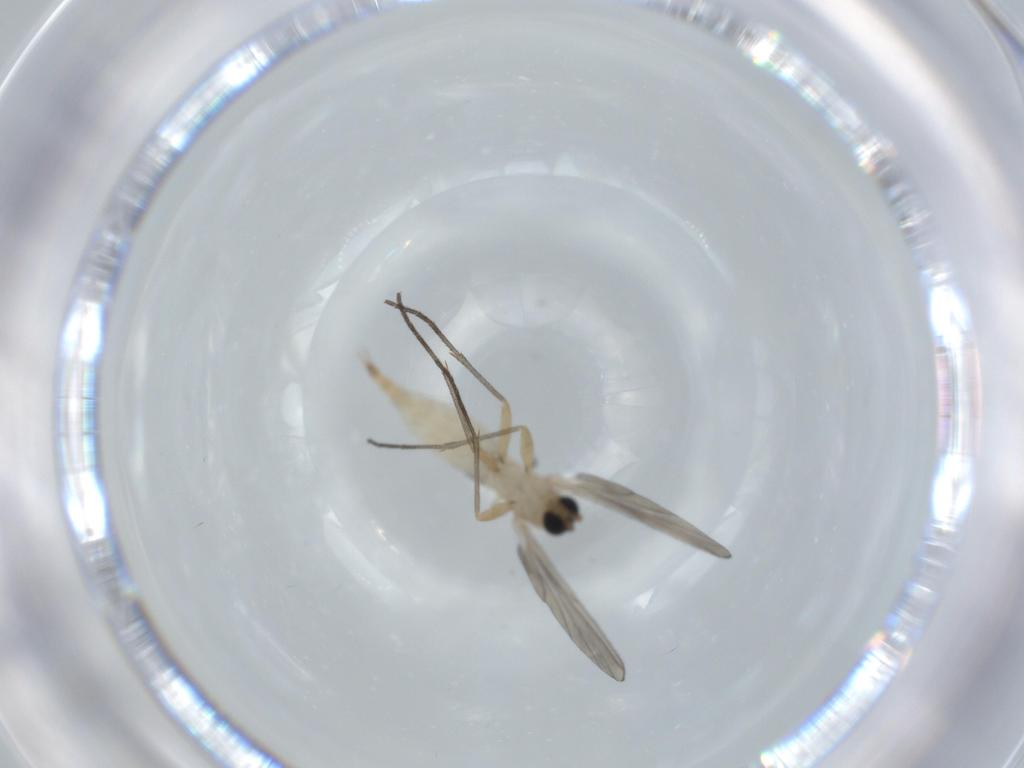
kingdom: Animalia
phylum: Arthropoda
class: Insecta
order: Diptera
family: Sciaridae
